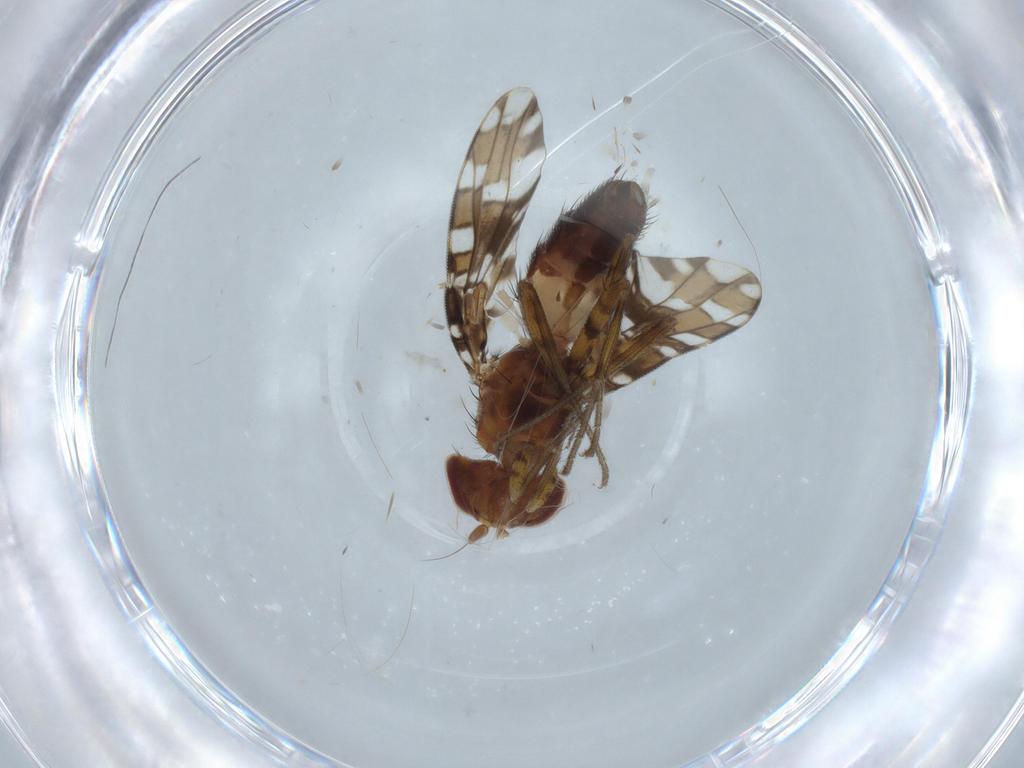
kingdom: Animalia
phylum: Arthropoda
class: Insecta
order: Diptera
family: Ulidiidae
